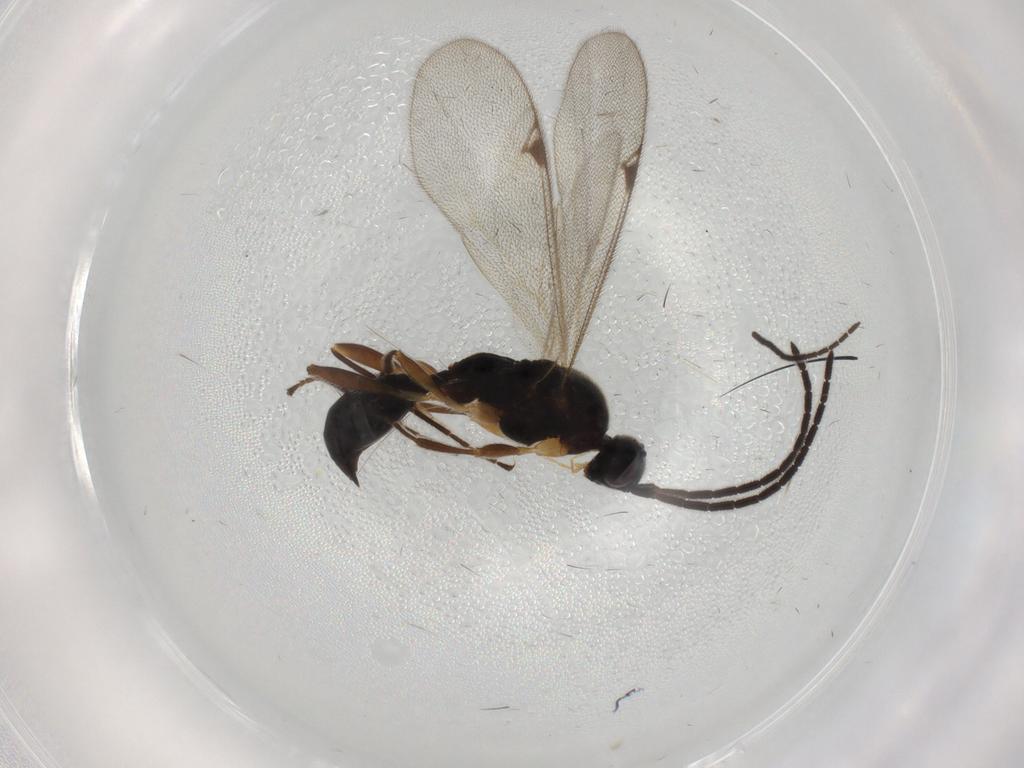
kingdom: Animalia
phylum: Arthropoda
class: Insecta
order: Hymenoptera
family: Proctotrupidae
